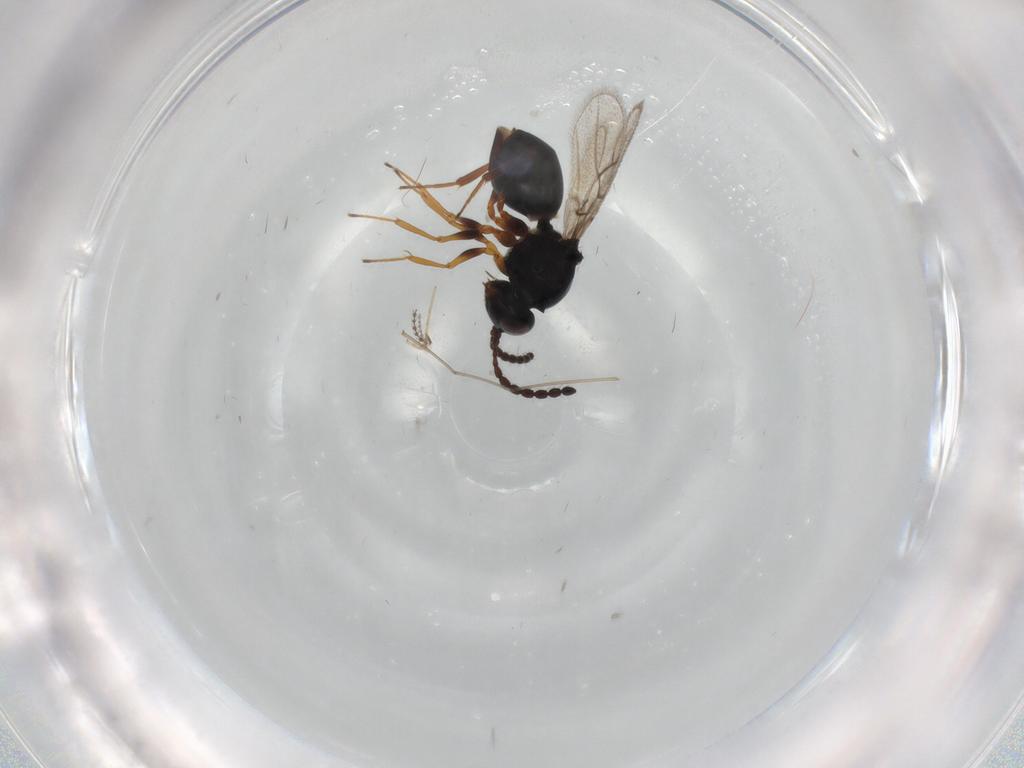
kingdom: Animalia
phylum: Arthropoda
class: Insecta
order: Hymenoptera
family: Figitidae
